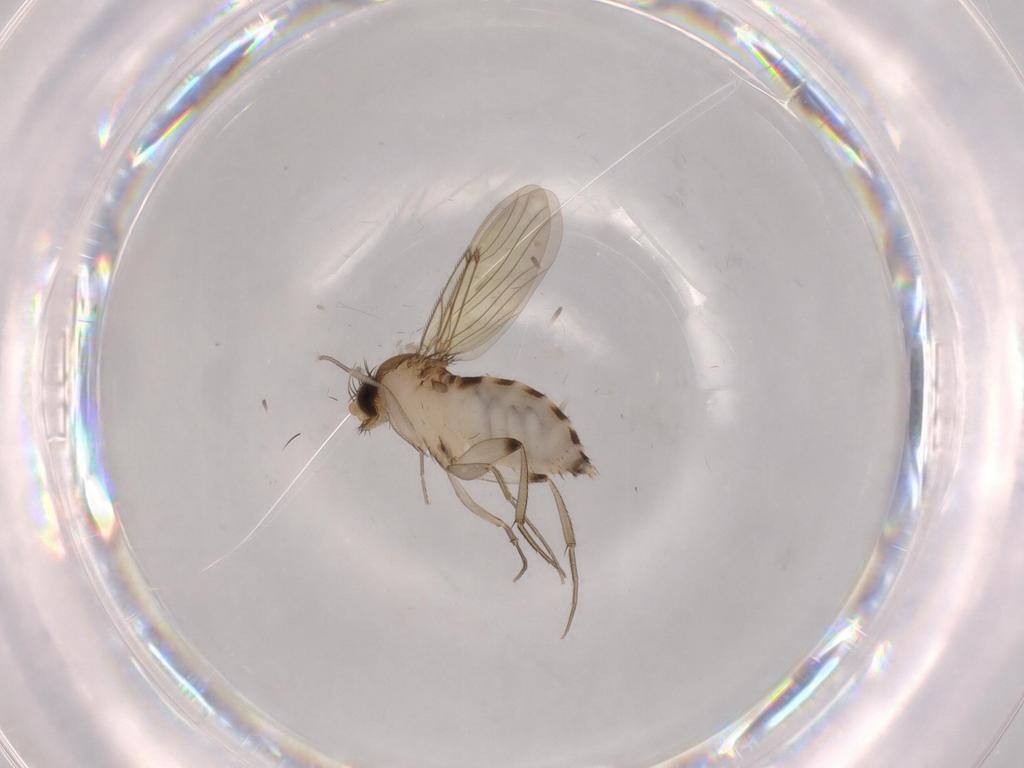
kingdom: Animalia
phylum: Arthropoda
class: Insecta
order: Diptera
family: Phoridae
